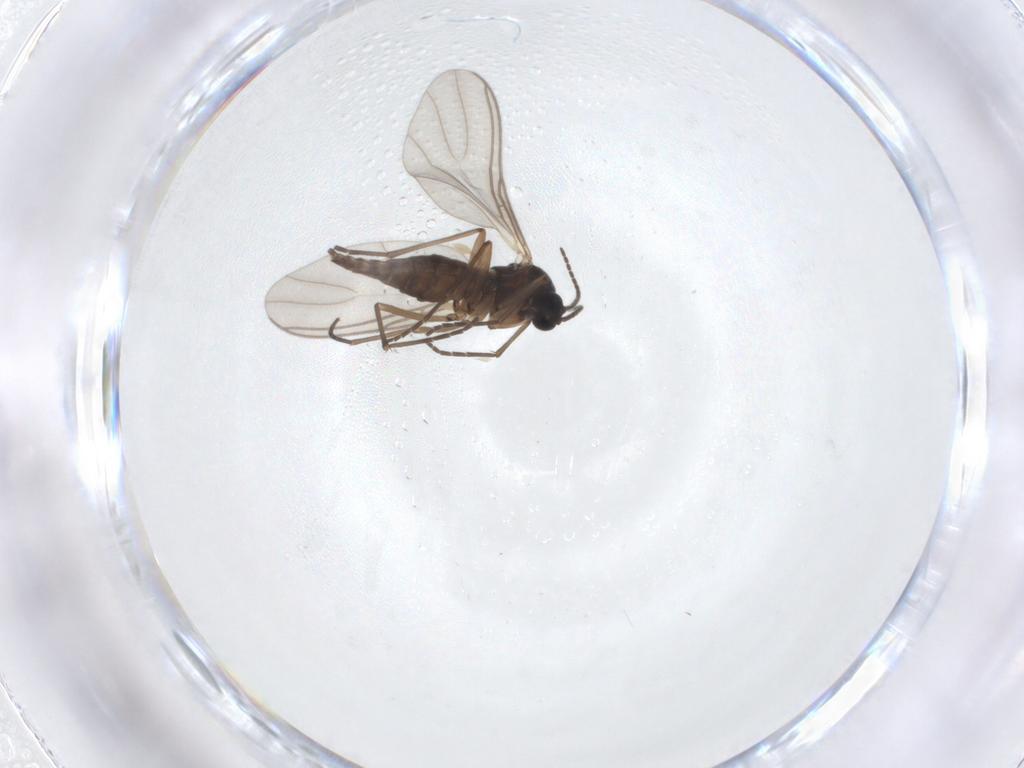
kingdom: Animalia
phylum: Arthropoda
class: Insecta
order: Diptera
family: Sciaridae
